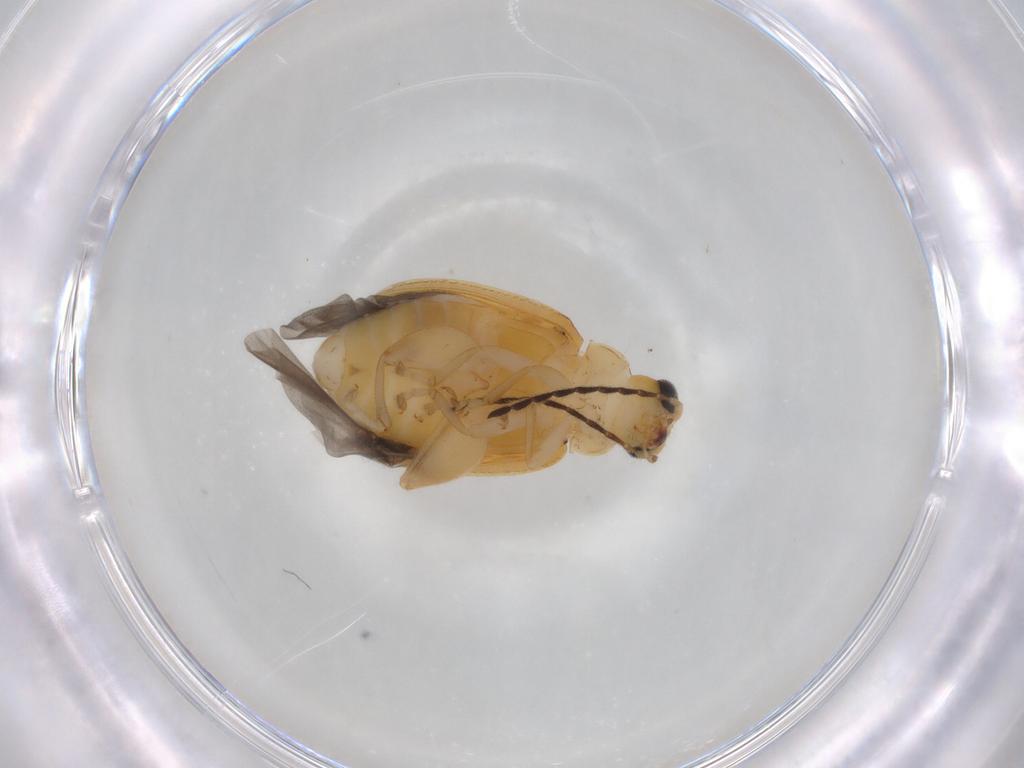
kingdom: Animalia
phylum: Arthropoda
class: Insecta
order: Coleoptera
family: Chrysomelidae
